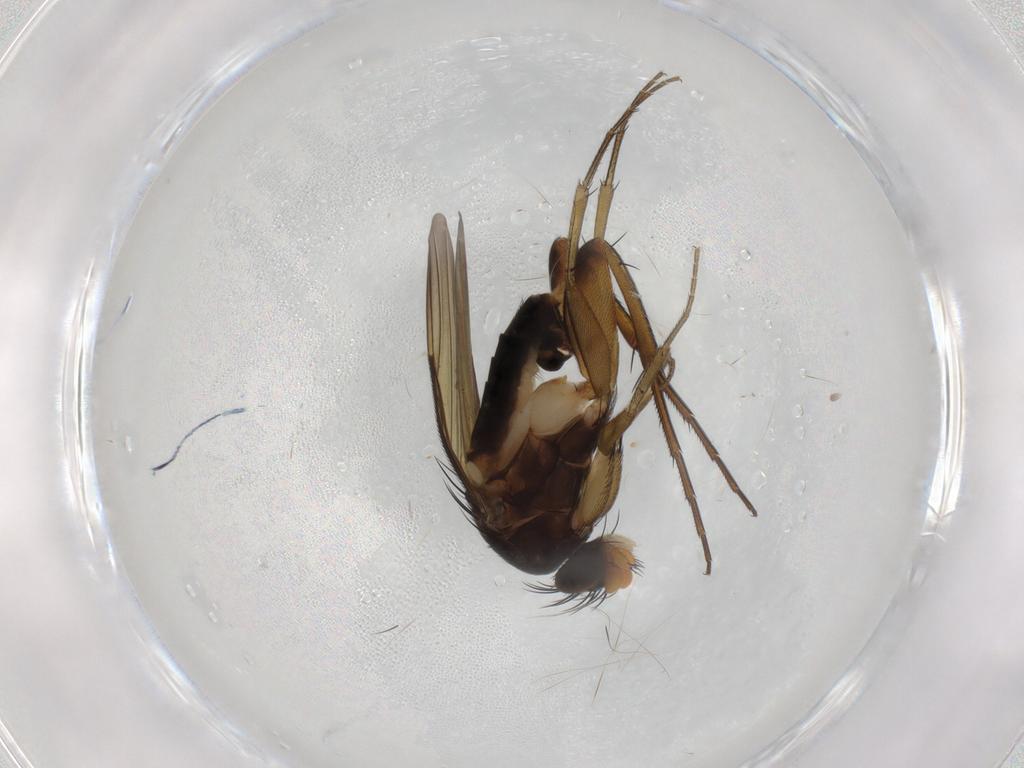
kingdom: Animalia
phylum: Arthropoda
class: Insecta
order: Diptera
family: Phoridae
